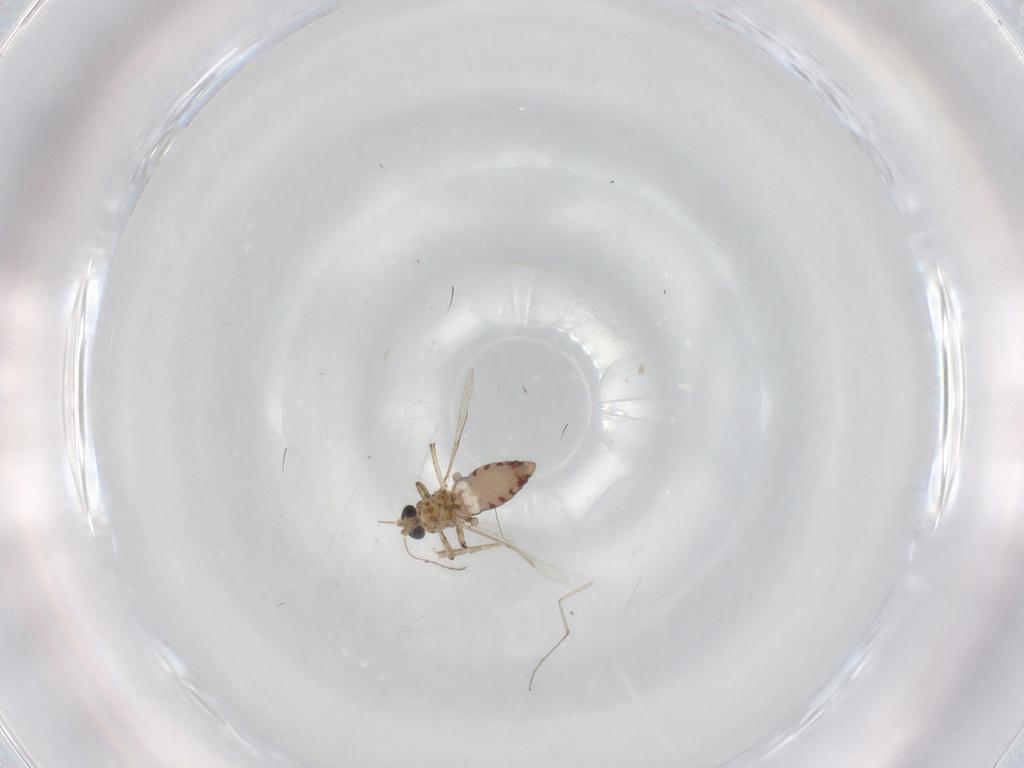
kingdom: Animalia
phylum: Arthropoda
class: Insecta
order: Diptera
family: Ceratopogonidae
